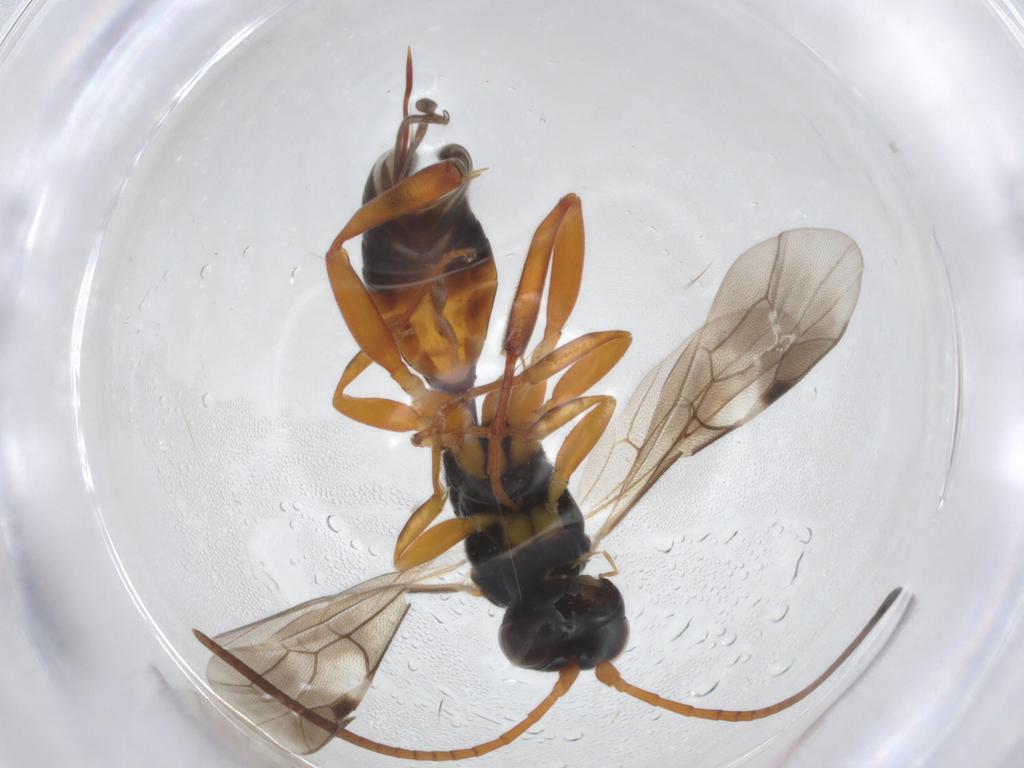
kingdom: Animalia
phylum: Arthropoda
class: Insecta
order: Hymenoptera
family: Ichneumonidae
